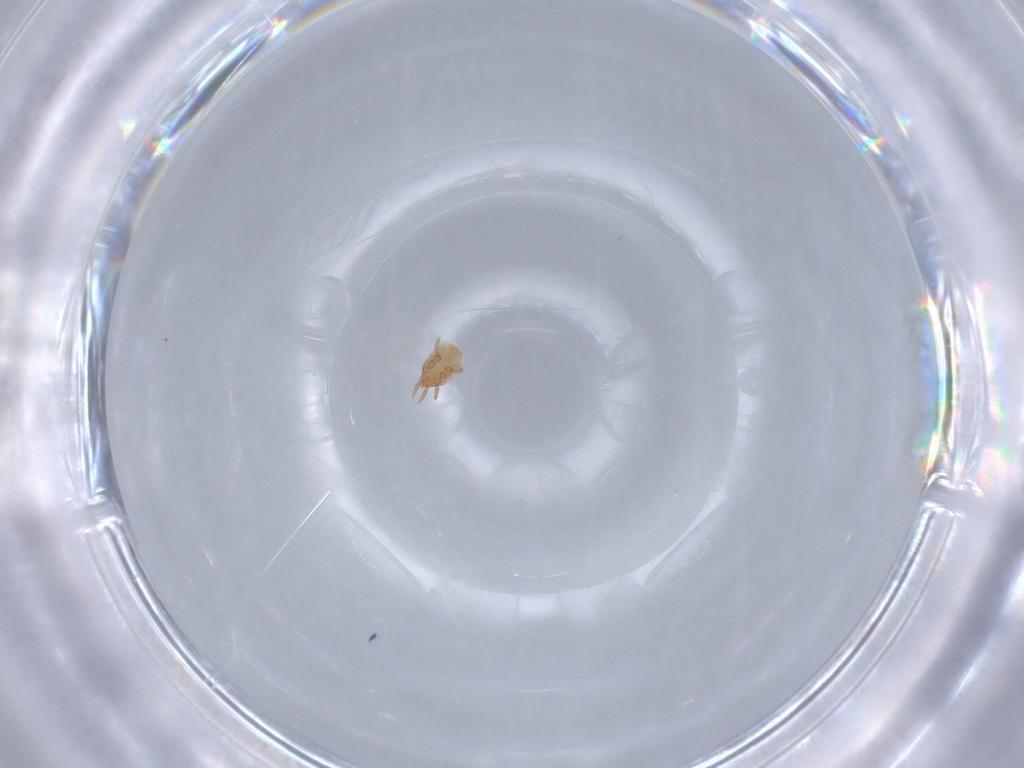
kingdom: Animalia
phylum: Arthropoda
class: Arachnida
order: Mesostigmata
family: Dinychidae
